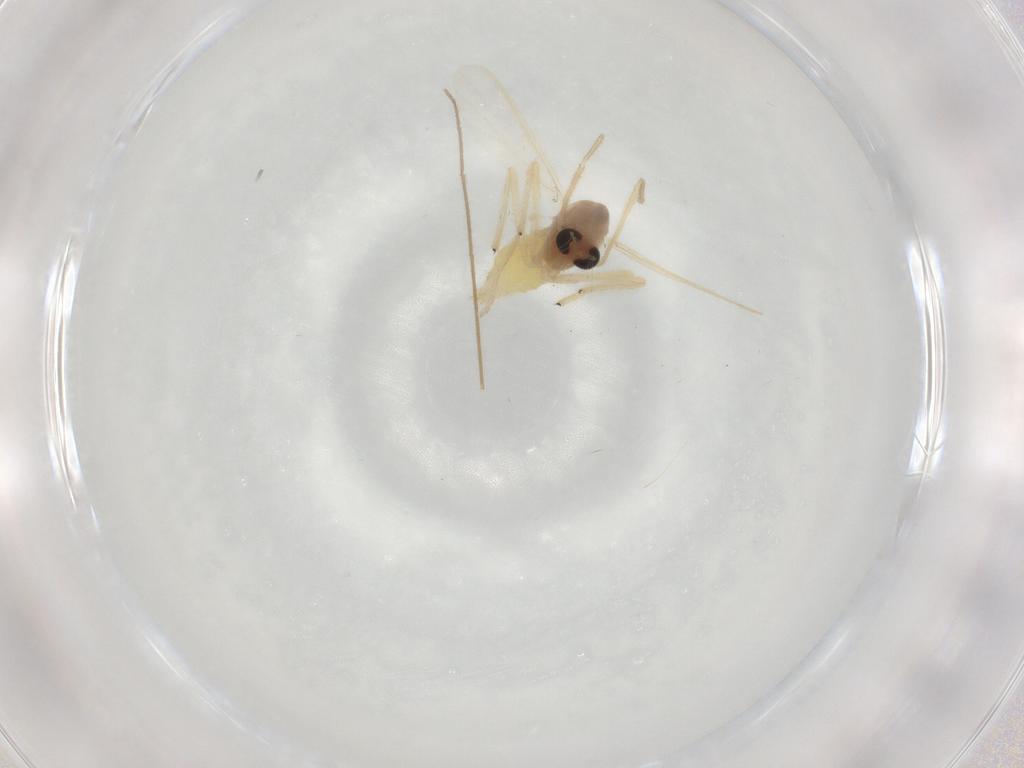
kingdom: Animalia
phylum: Arthropoda
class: Insecta
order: Diptera
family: Chironomidae
